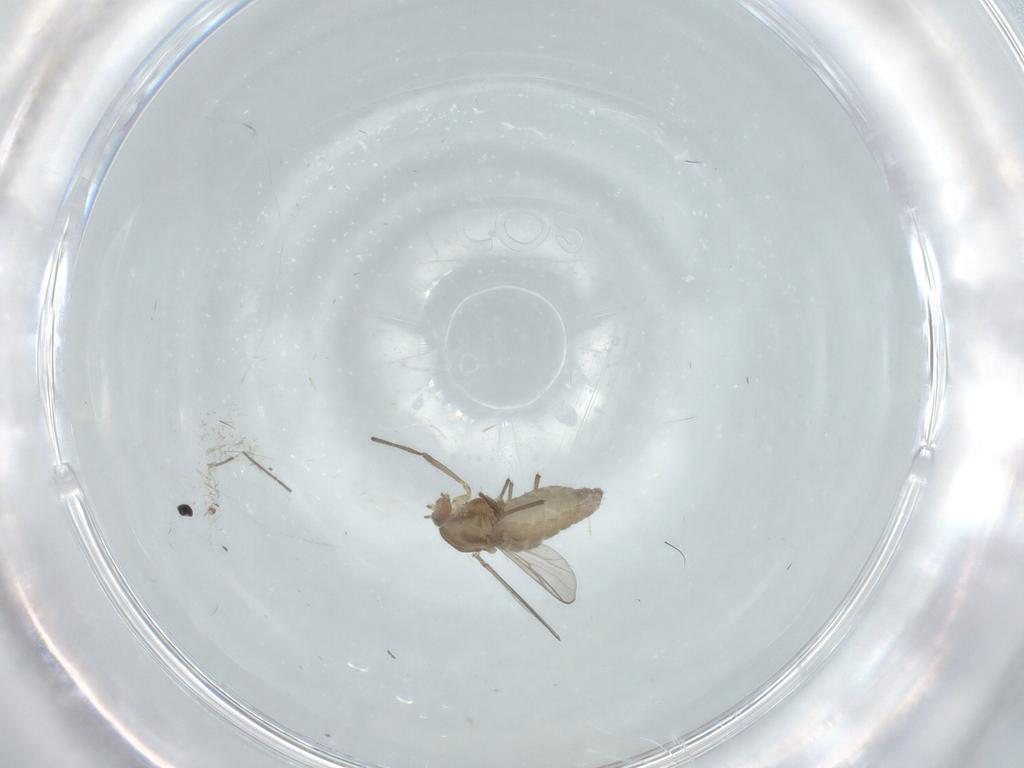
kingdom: Animalia
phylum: Arthropoda
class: Insecta
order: Diptera
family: Chironomidae
